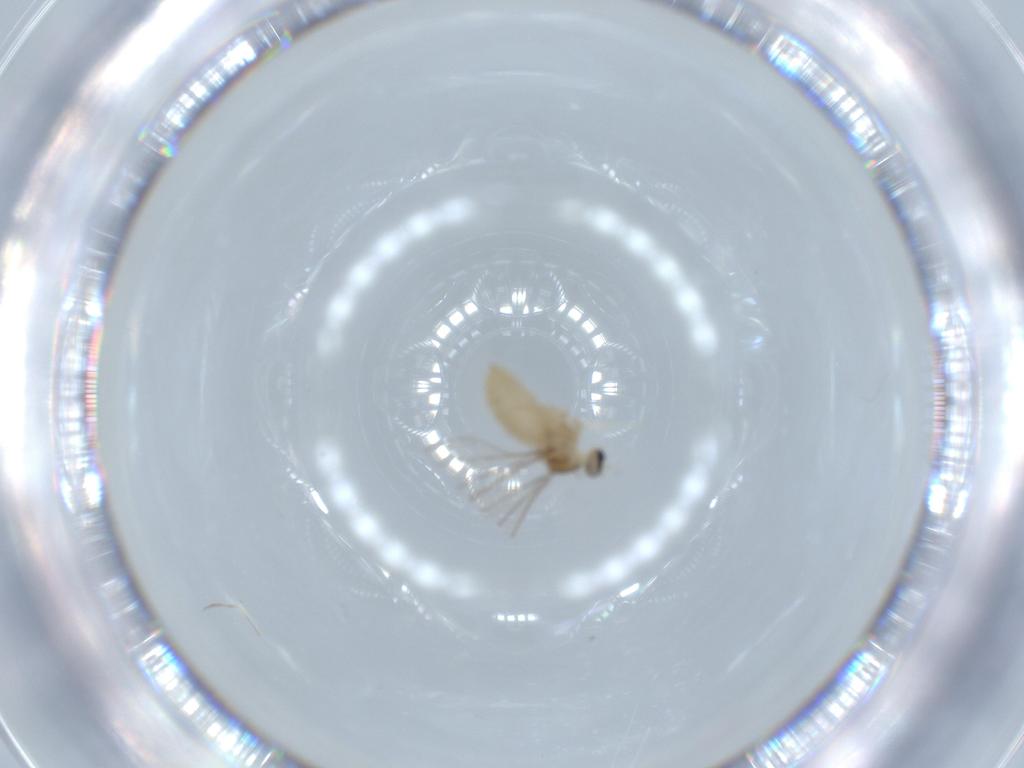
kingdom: Animalia
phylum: Arthropoda
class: Insecta
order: Diptera
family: Cecidomyiidae
